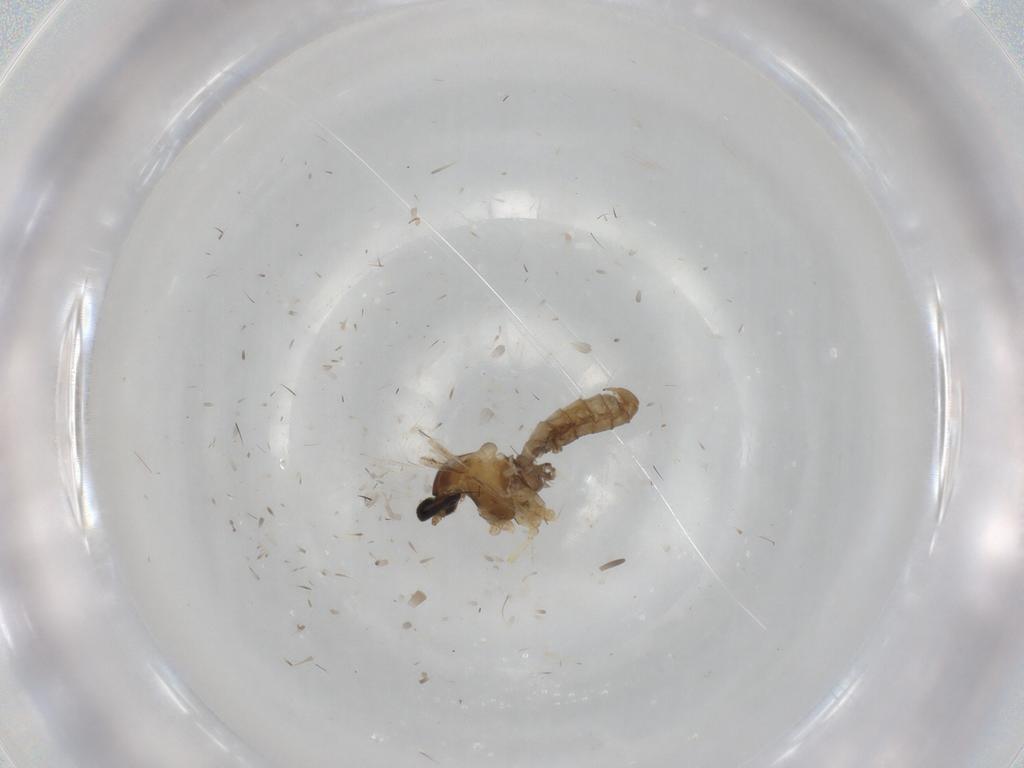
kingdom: Animalia
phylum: Arthropoda
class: Insecta
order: Diptera
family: Cecidomyiidae
